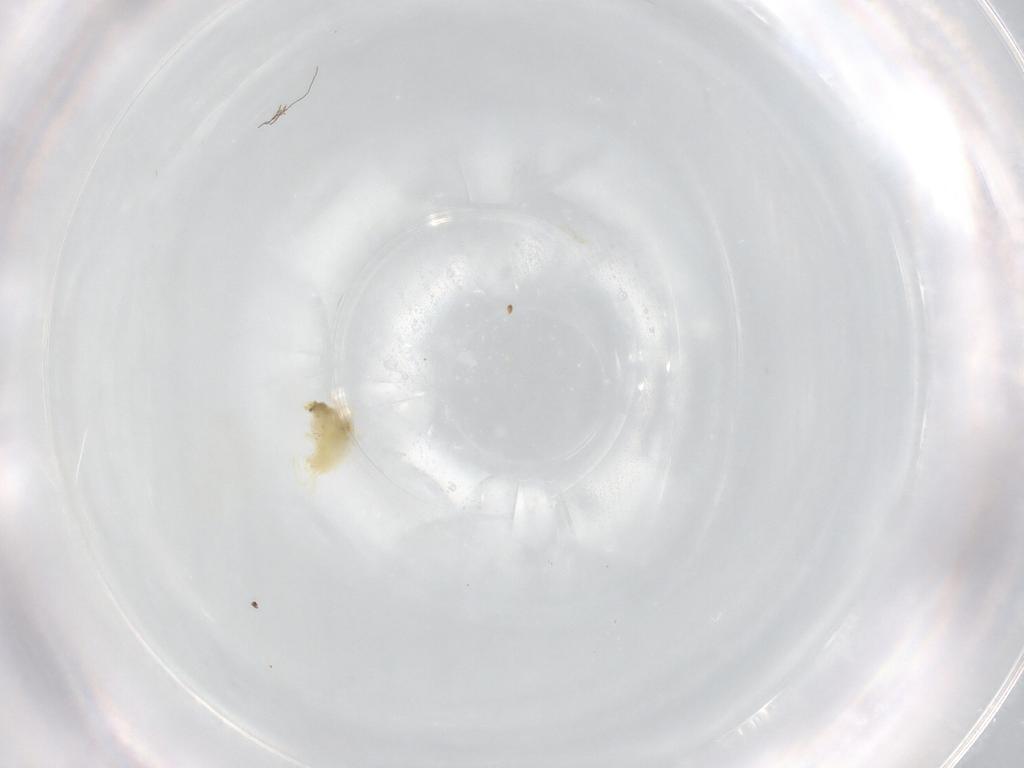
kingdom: Animalia
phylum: Arthropoda
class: Arachnida
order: Trombidiformes
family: Tetranychidae
